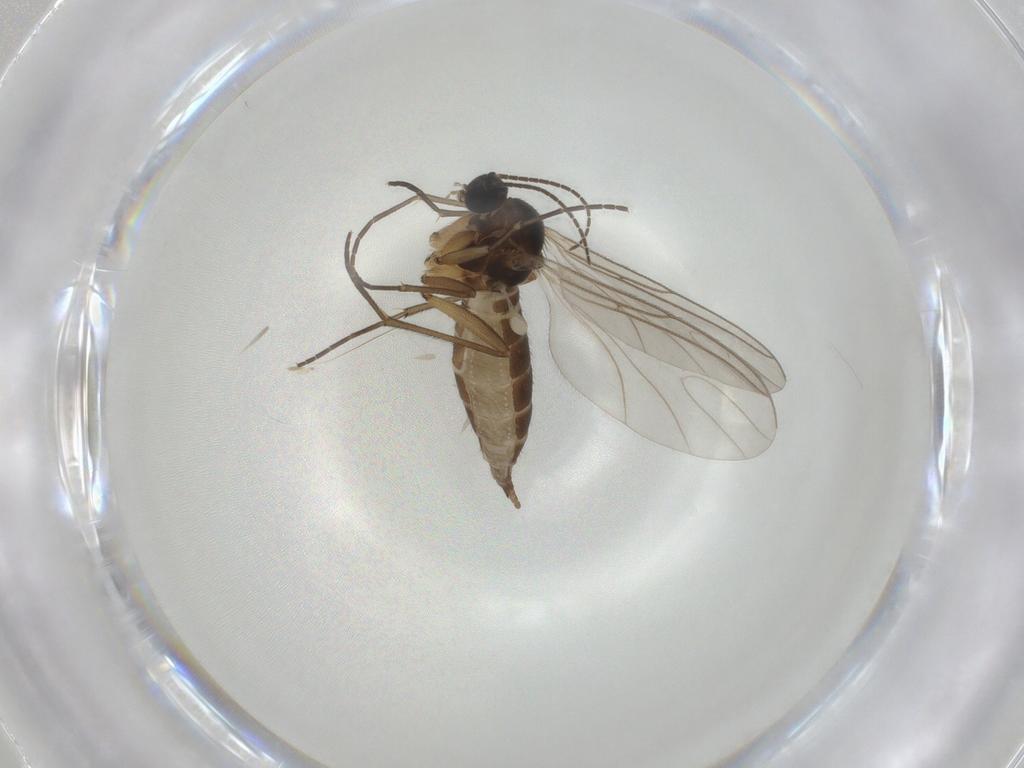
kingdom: Animalia
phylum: Arthropoda
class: Insecta
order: Diptera
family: Sciaridae
